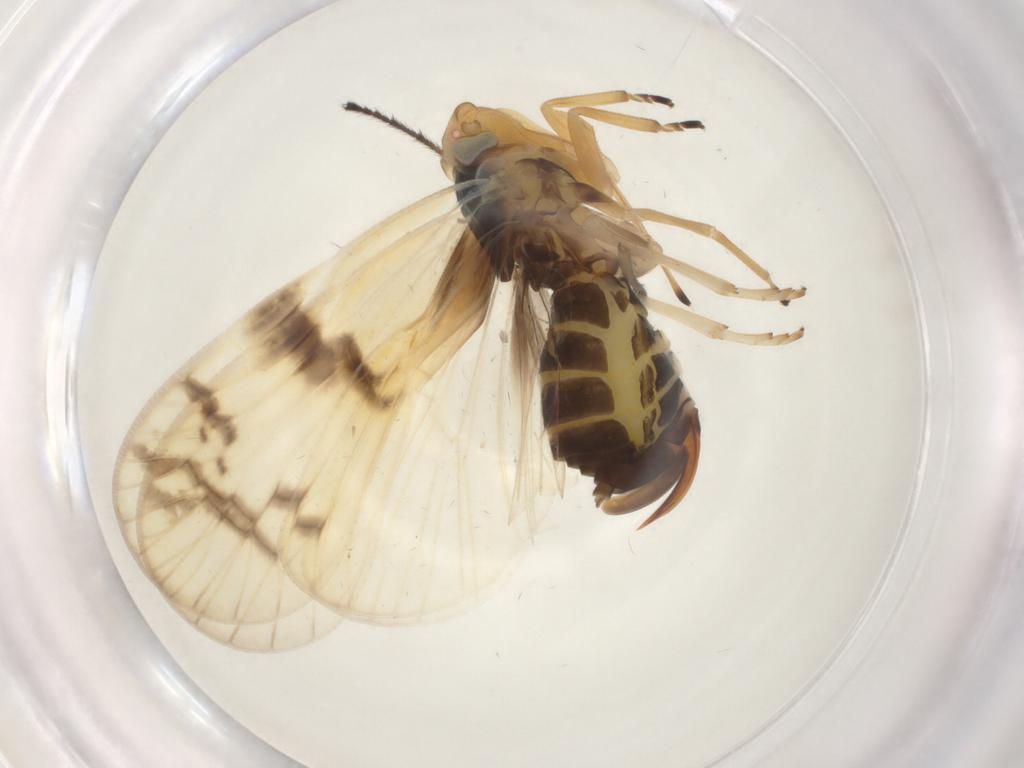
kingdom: Animalia
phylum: Arthropoda
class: Insecta
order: Hemiptera
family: Cixiidae
